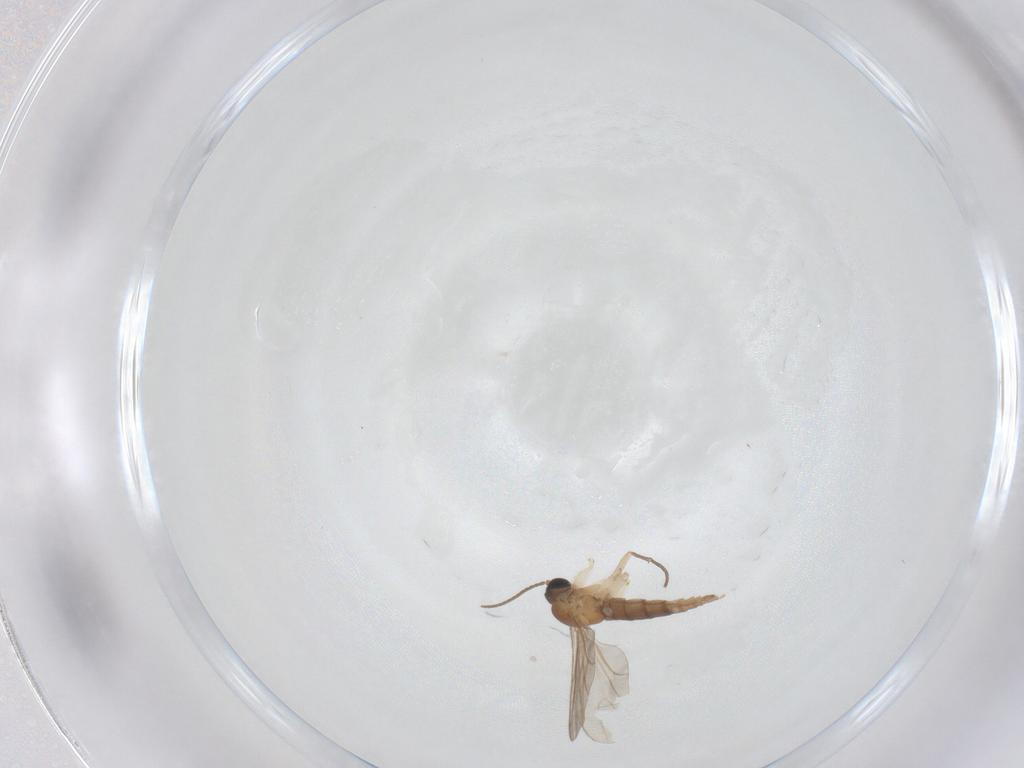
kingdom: Animalia
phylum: Arthropoda
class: Insecta
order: Diptera
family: Sciaridae
